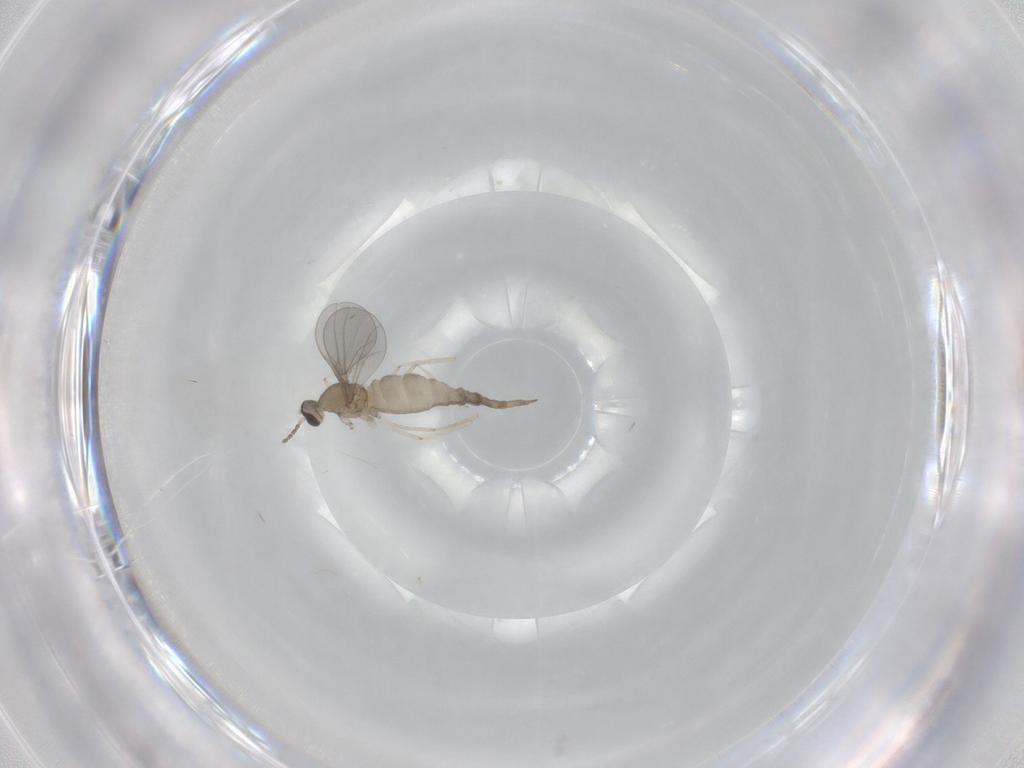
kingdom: Animalia
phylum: Arthropoda
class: Insecta
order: Diptera
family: Cecidomyiidae
